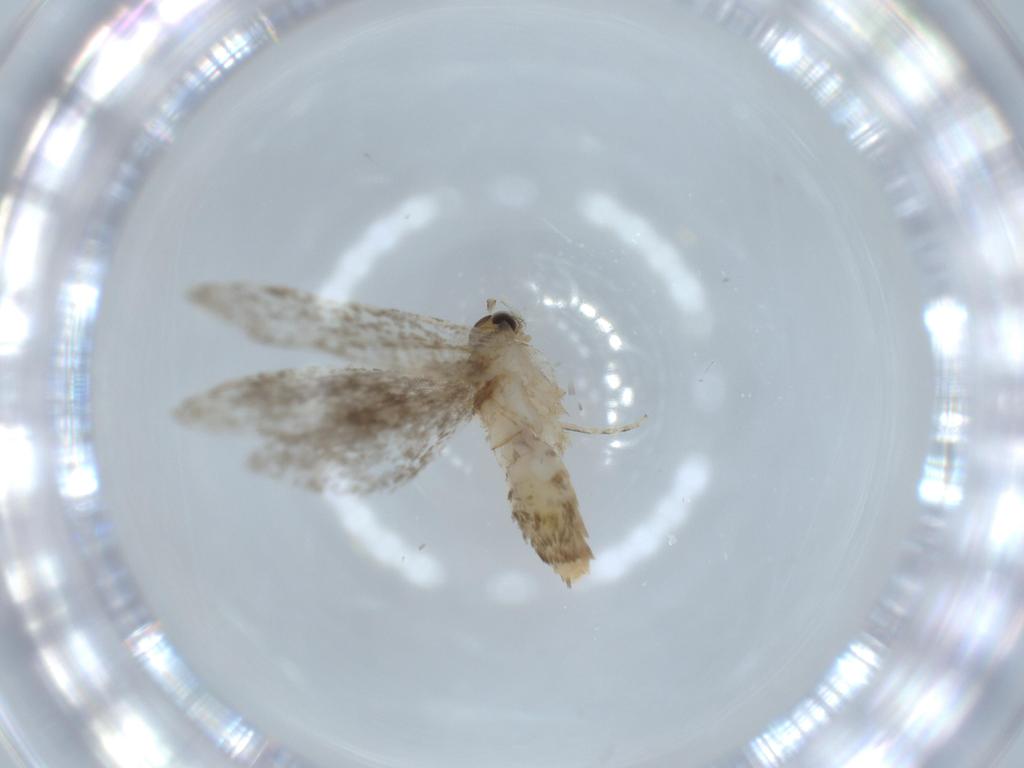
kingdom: Animalia
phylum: Arthropoda
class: Insecta
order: Lepidoptera
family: Tineidae
